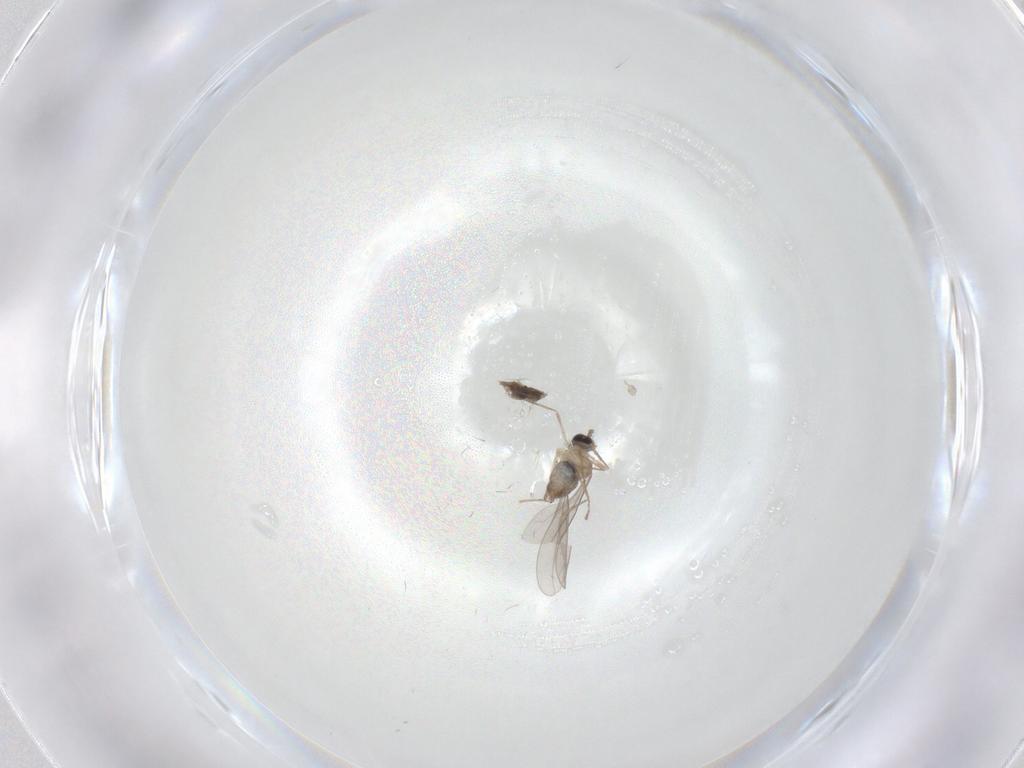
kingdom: Animalia
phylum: Arthropoda
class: Insecta
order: Diptera
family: Cecidomyiidae
